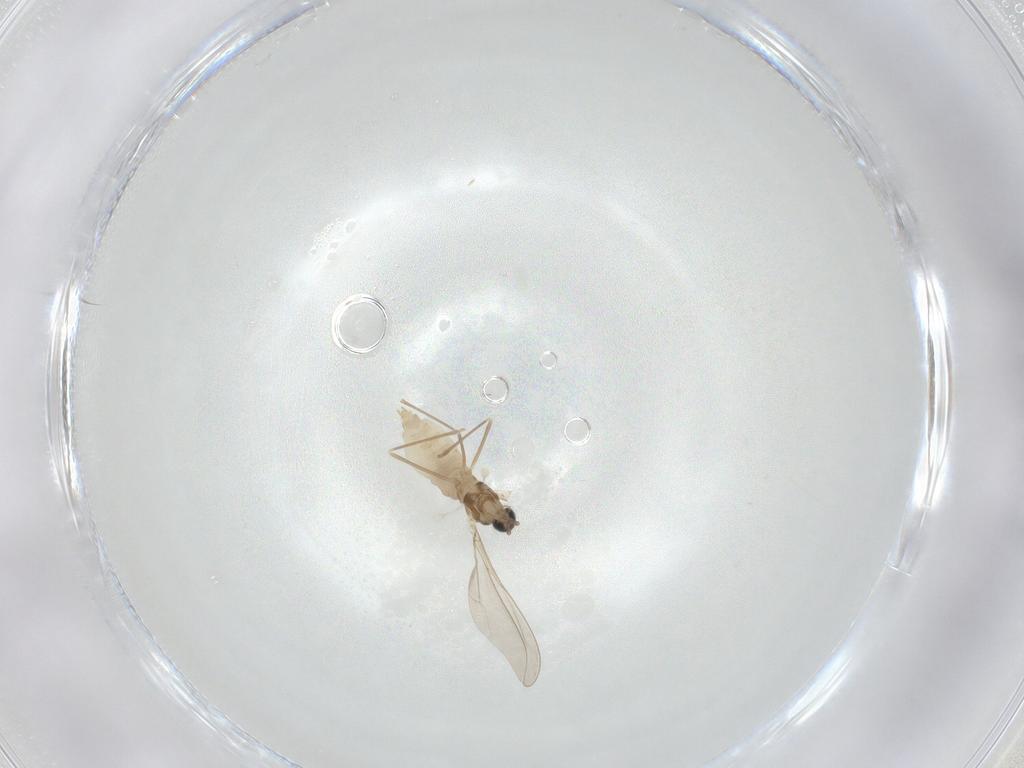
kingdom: Animalia
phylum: Arthropoda
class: Insecta
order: Diptera
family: Cecidomyiidae
